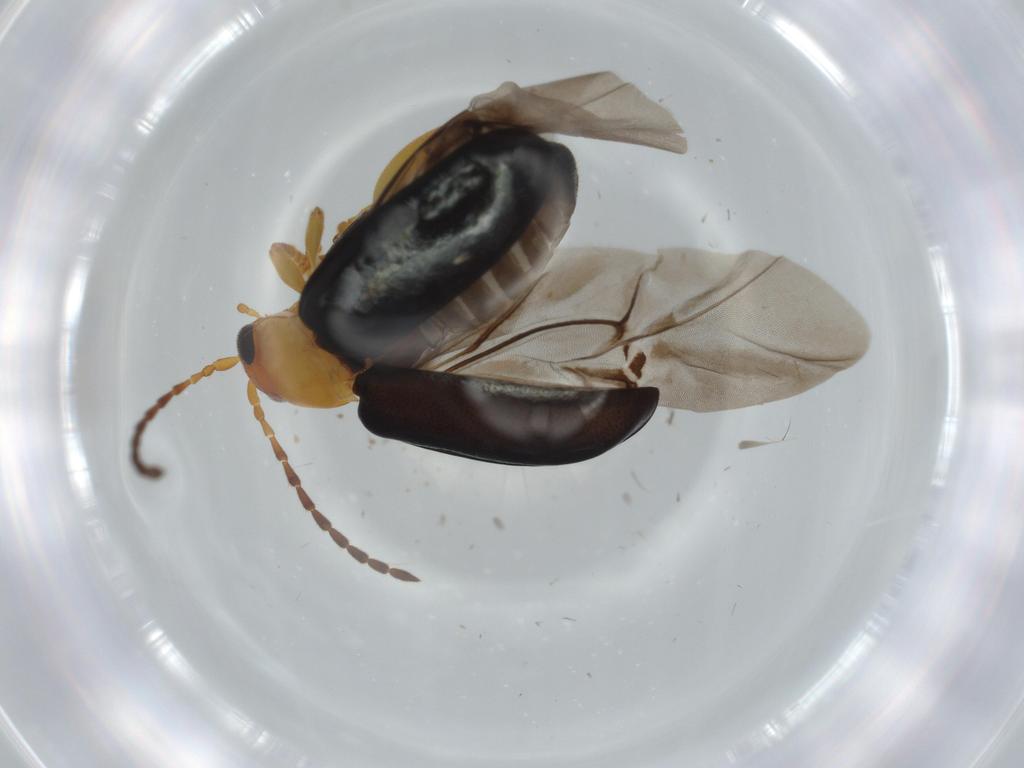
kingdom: Animalia
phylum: Arthropoda
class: Insecta
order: Coleoptera
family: Chrysomelidae
